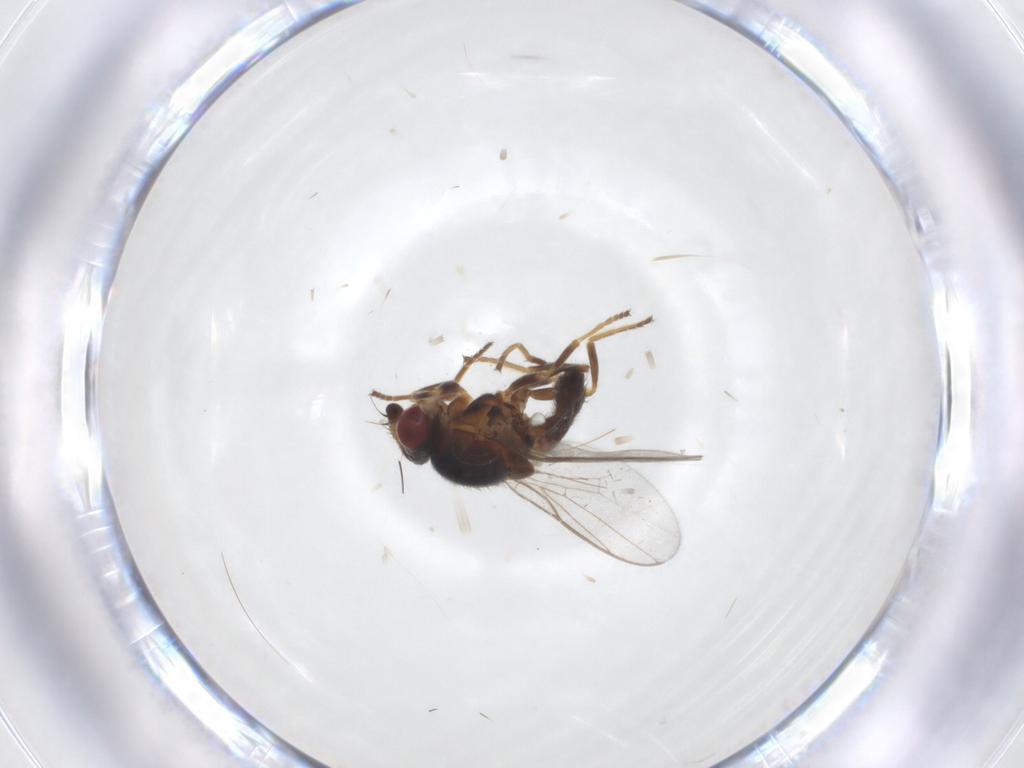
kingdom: Animalia
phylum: Arthropoda
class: Insecta
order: Diptera
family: Chloropidae
